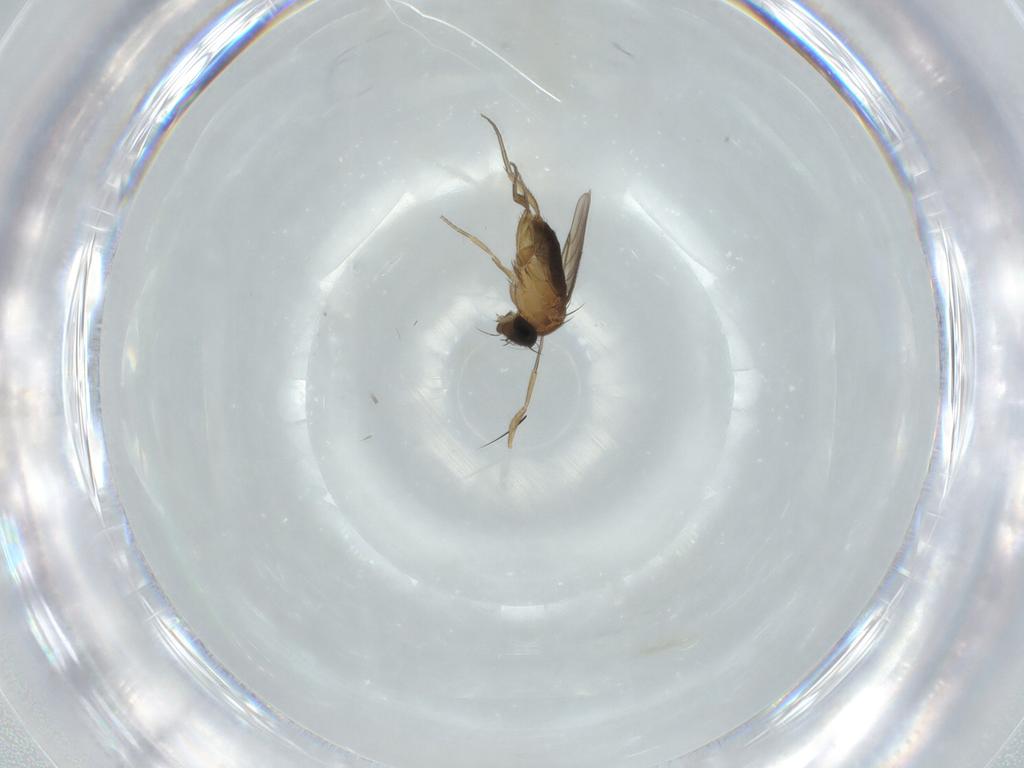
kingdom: Animalia
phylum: Arthropoda
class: Insecta
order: Diptera
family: Phoridae
